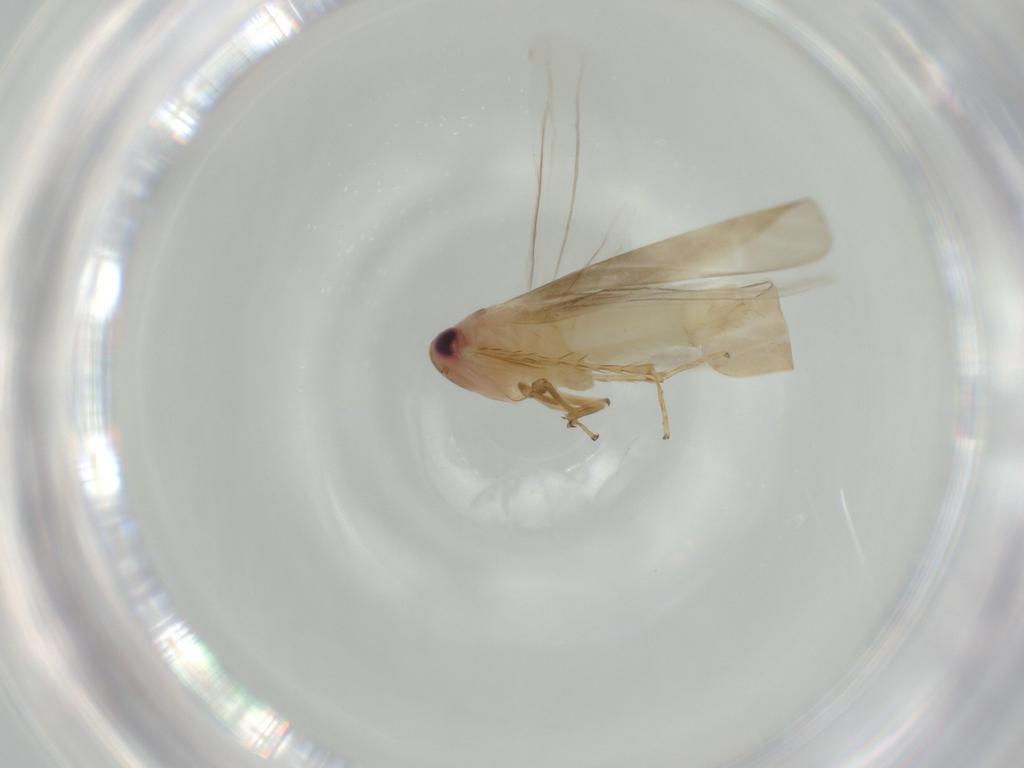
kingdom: Animalia
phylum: Arthropoda
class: Insecta
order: Hemiptera
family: Cicadellidae
